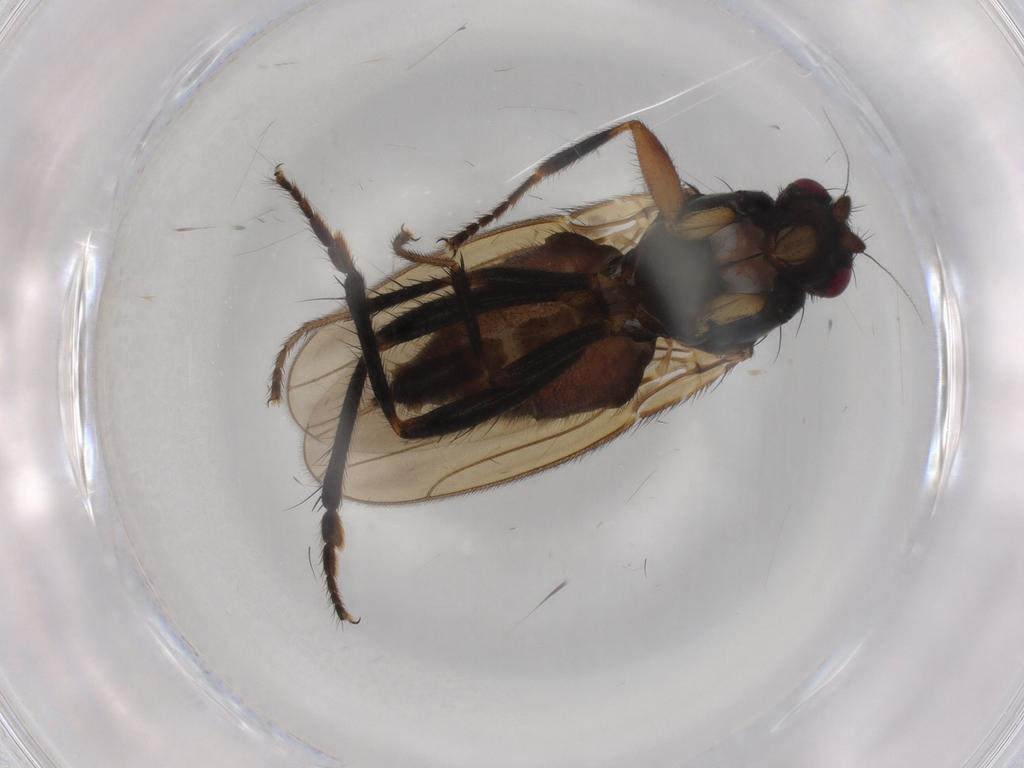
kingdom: Animalia
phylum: Arthropoda
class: Insecta
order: Diptera
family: Sphaeroceridae
